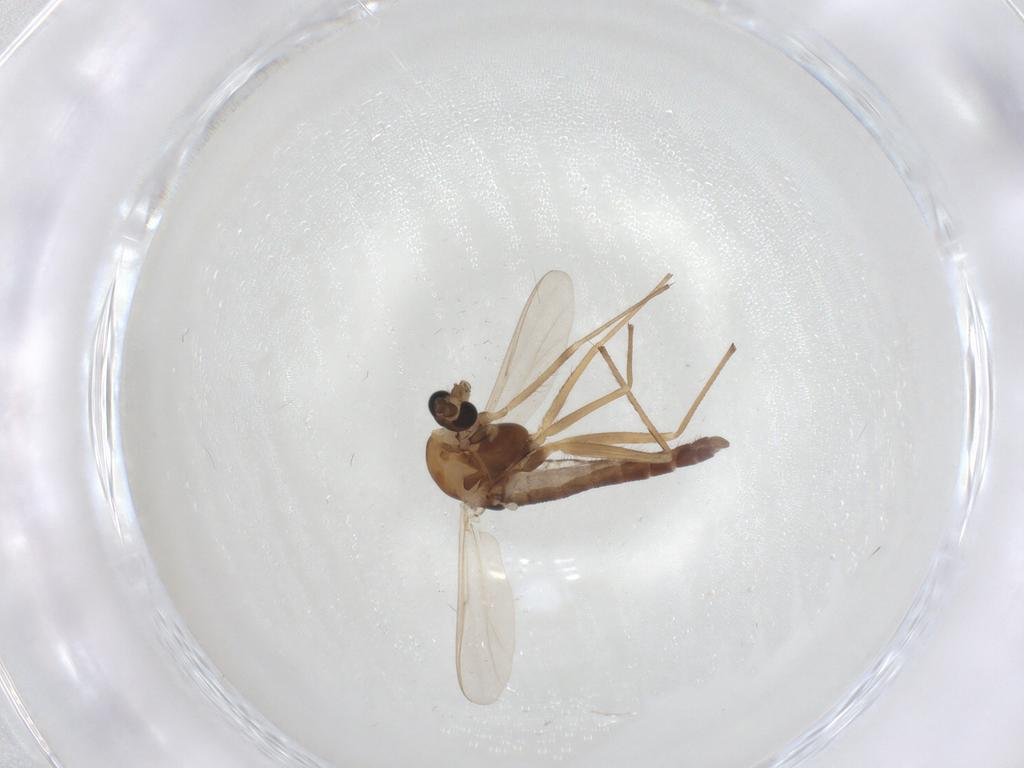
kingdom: Animalia
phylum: Arthropoda
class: Insecta
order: Diptera
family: Chironomidae
